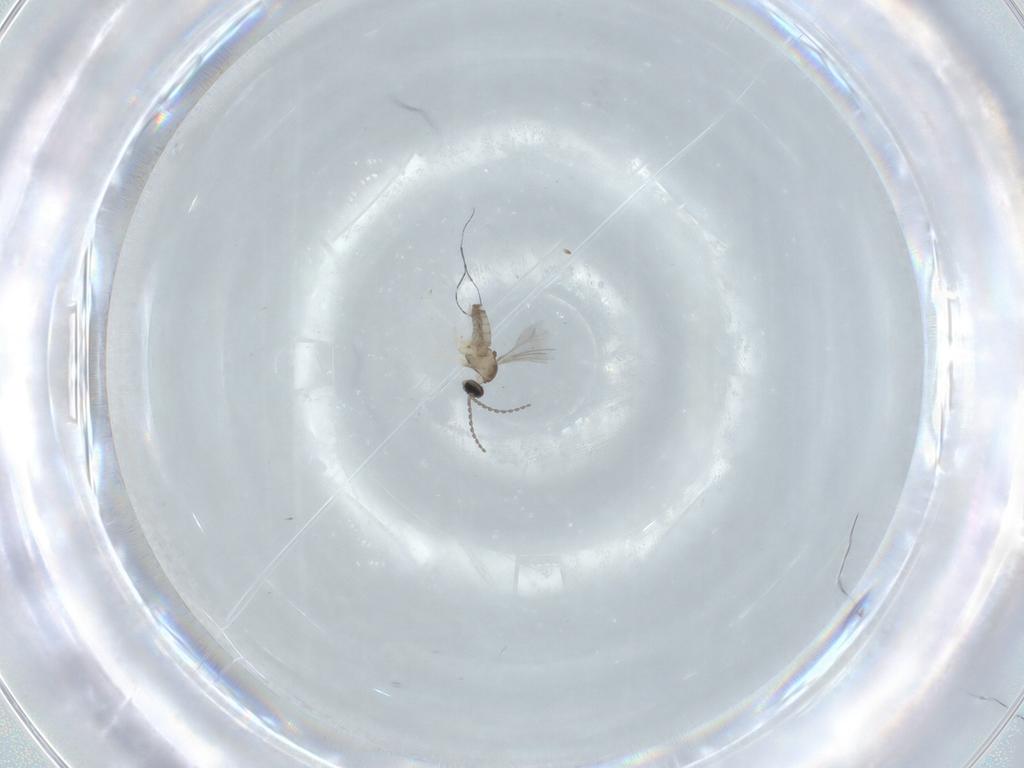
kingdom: Animalia
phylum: Arthropoda
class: Insecta
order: Diptera
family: Cecidomyiidae
